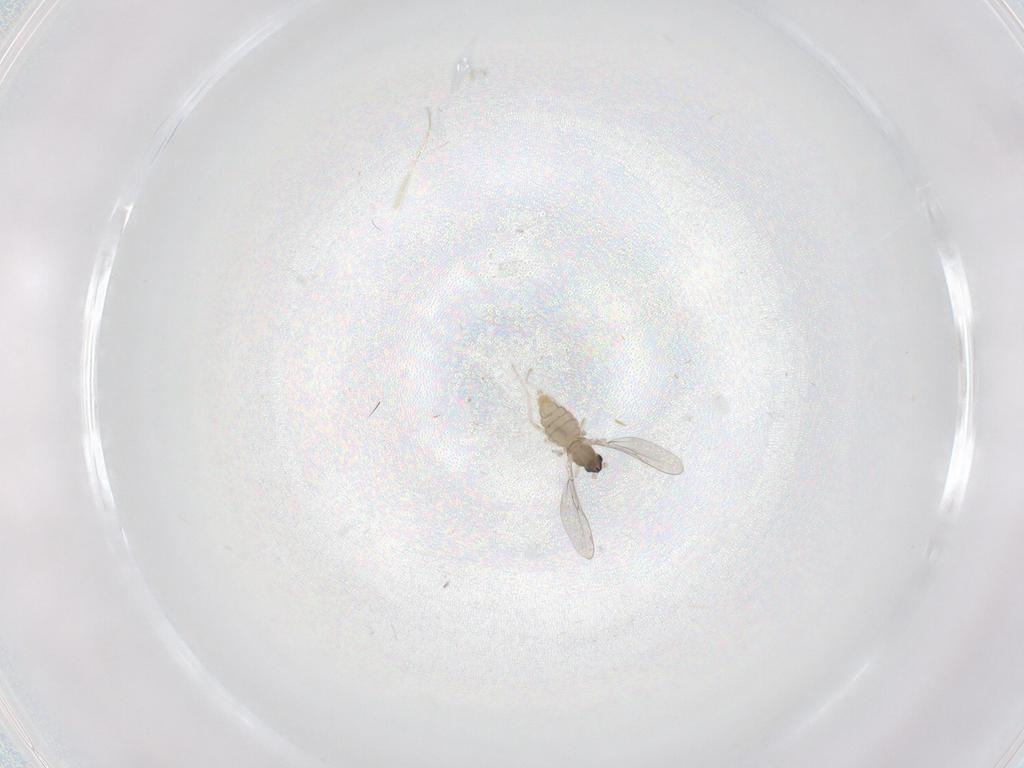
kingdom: Animalia
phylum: Arthropoda
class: Insecta
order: Diptera
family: Cecidomyiidae
